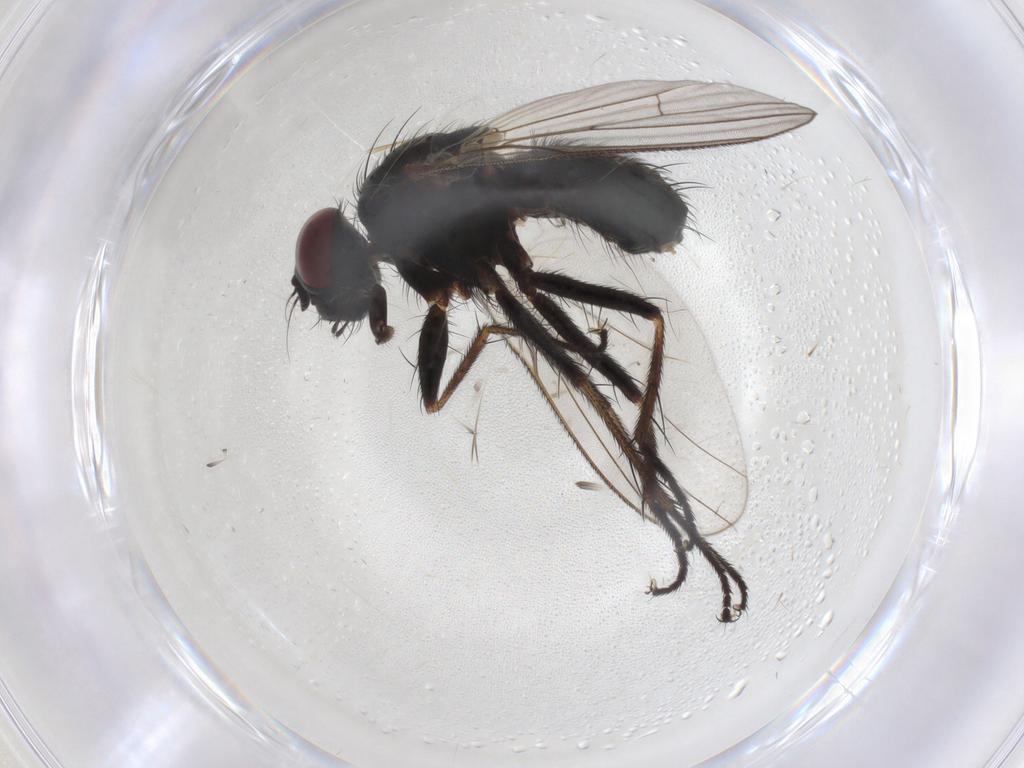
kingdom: Animalia
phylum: Arthropoda
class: Insecta
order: Diptera
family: Muscidae
